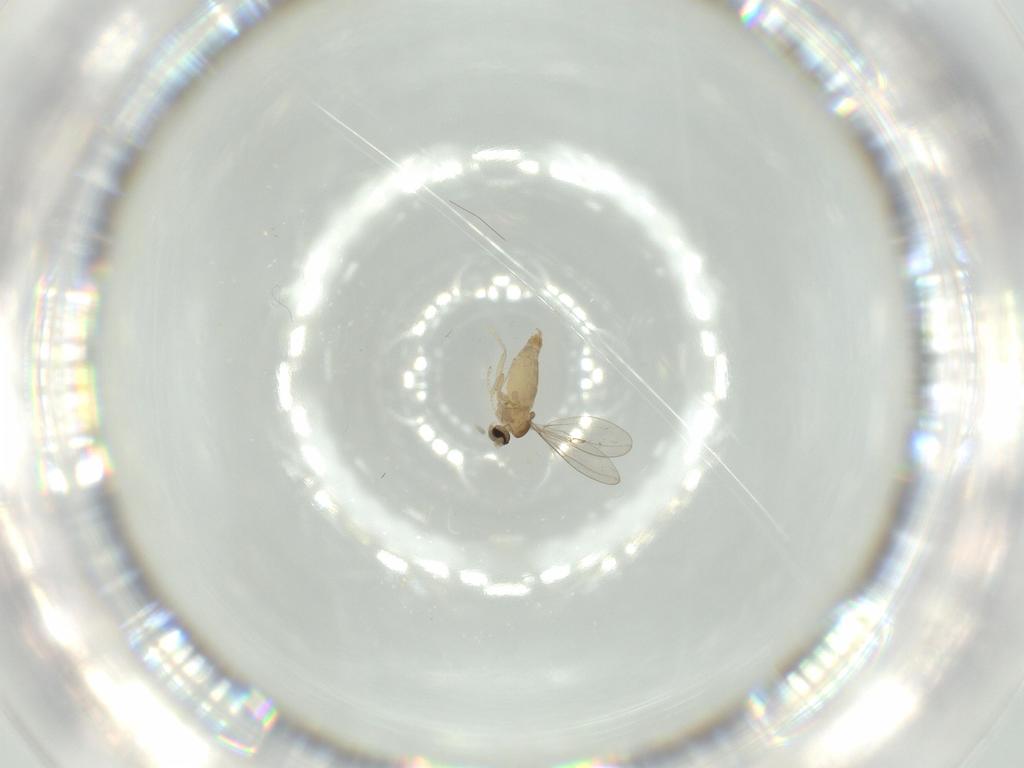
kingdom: Animalia
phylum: Arthropoda
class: Insecta
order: Diptera
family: Cecidomyiidae
